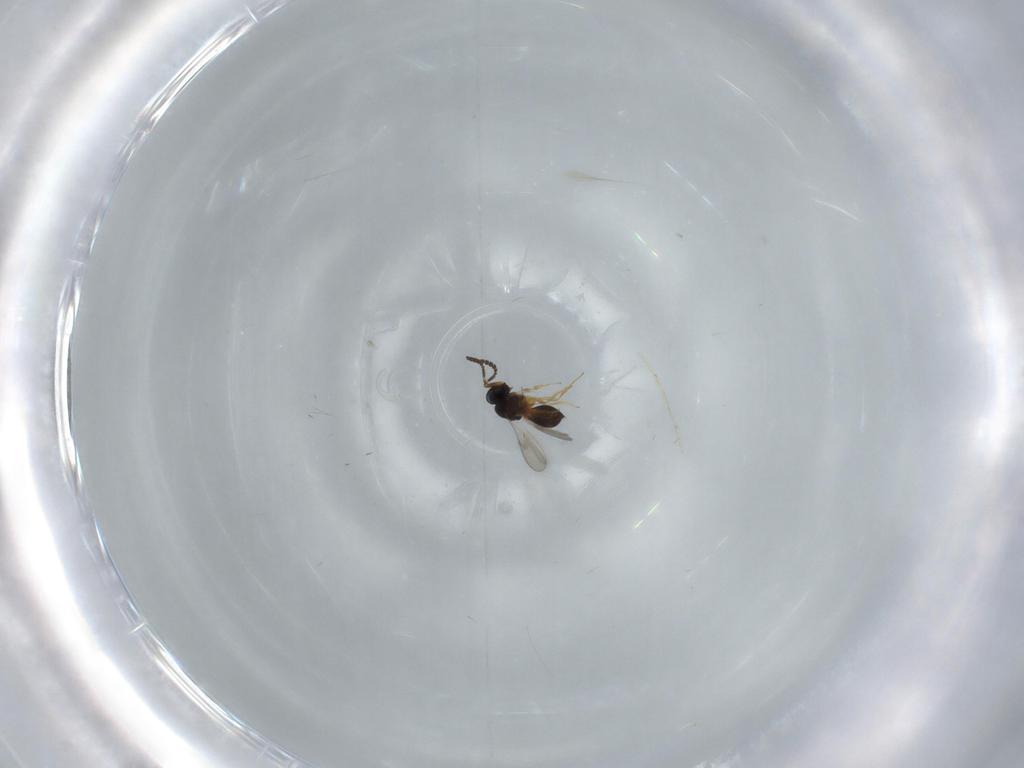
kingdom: Animalia
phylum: Arthropoda
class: Insecta
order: Hymenoptera
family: Scelionidae
